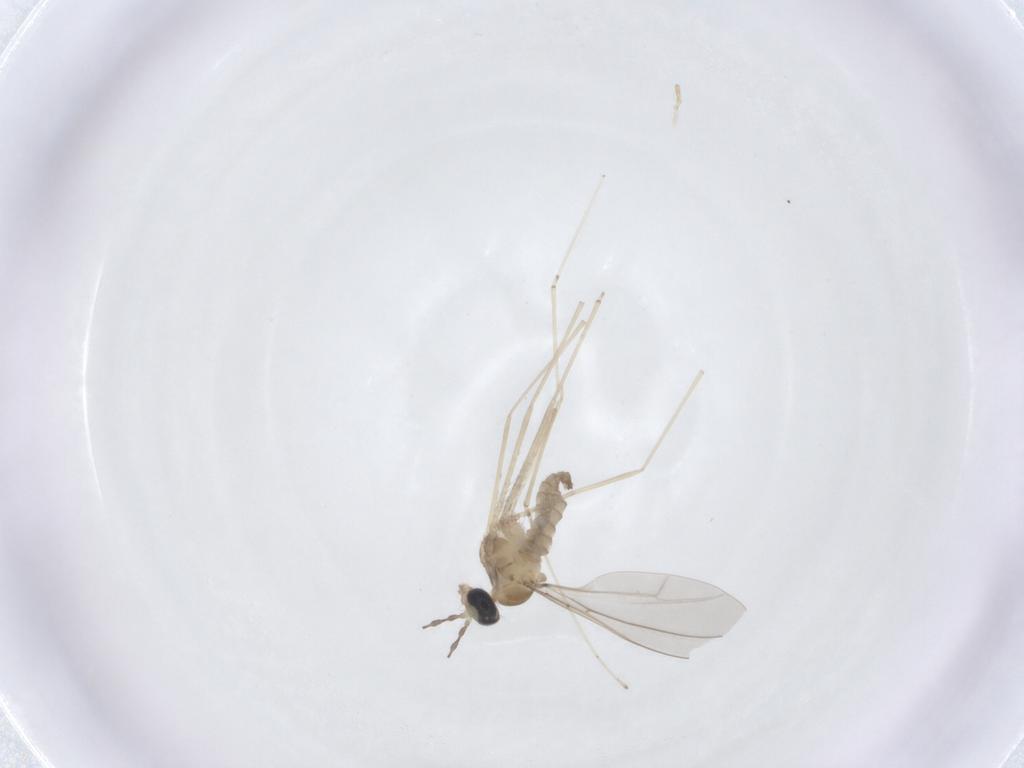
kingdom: Animalia
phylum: Arthropoda
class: Insecta
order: Diptera
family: Cecidomyiidae
